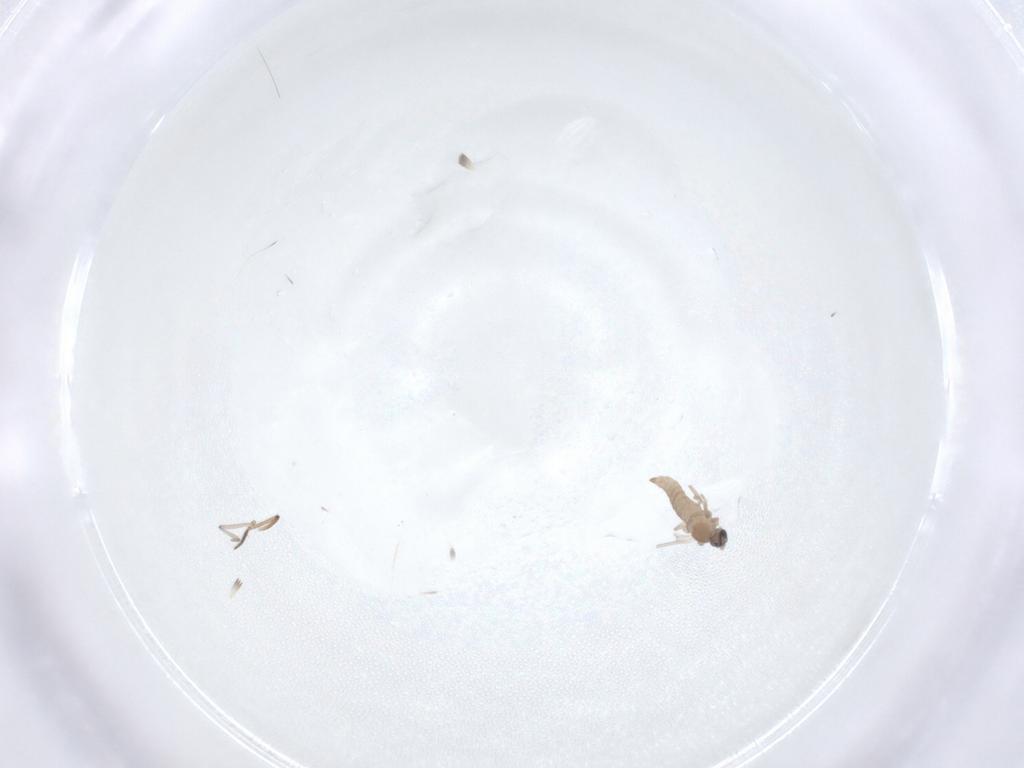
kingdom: Animalia
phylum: Arthropoda
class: Insecta
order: Diptera
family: Cecidomyiidae
